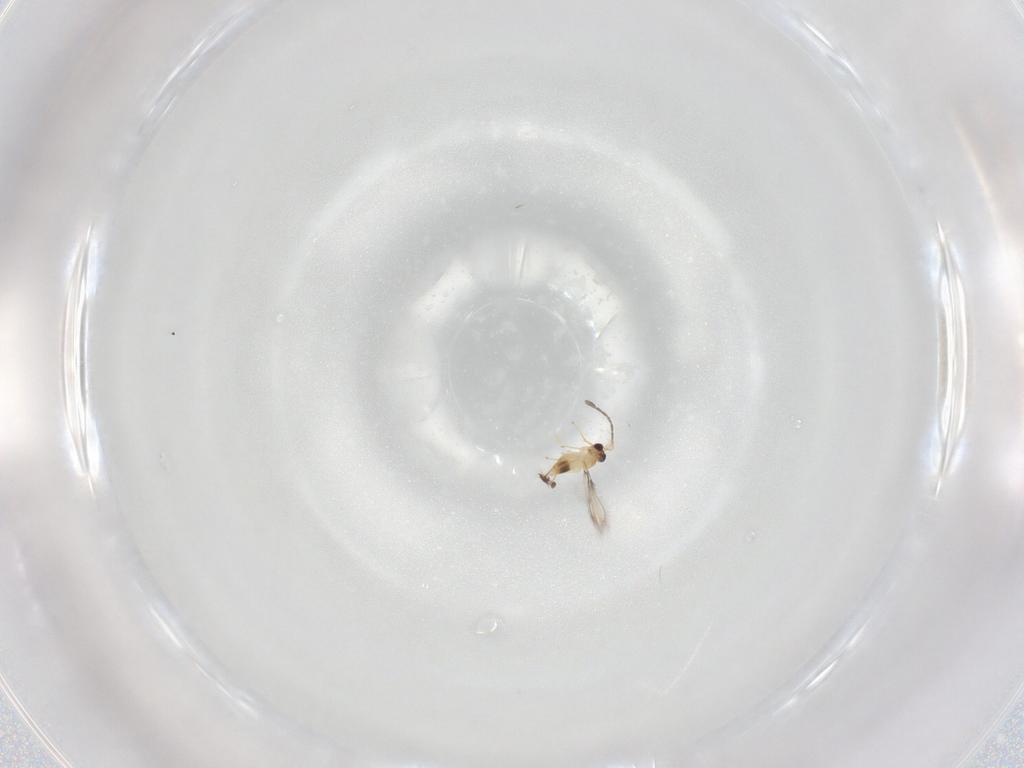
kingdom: Animalia
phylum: Arthropoda
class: Insecta
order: Hymenoptera
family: Mymaridae
